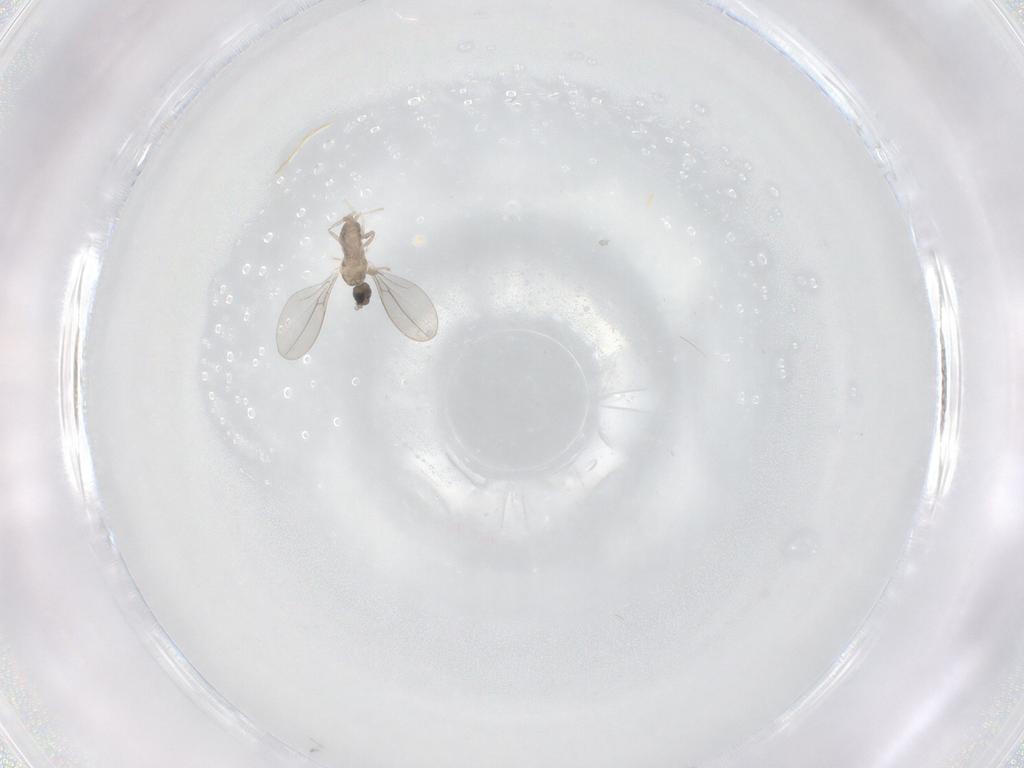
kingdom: Animalia
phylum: Arthropoda
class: Insecta
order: Diptera
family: Cecidomyiidae
